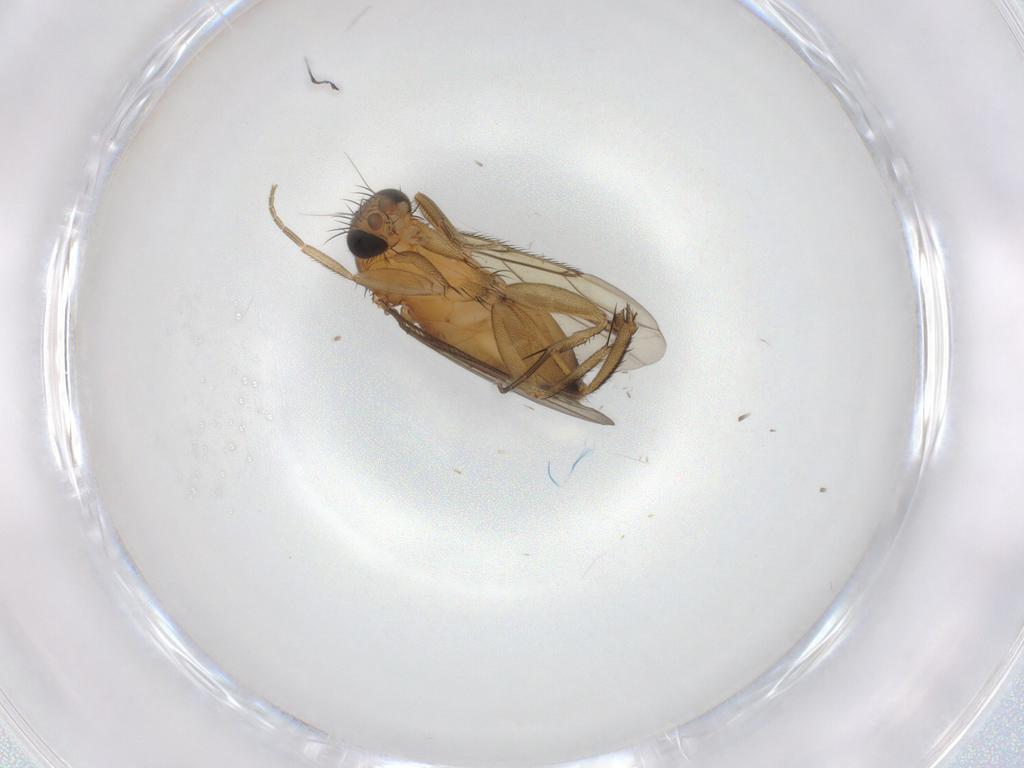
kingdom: Animalia
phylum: Arthropoda
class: Insecta
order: Diptera
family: Phoridae
